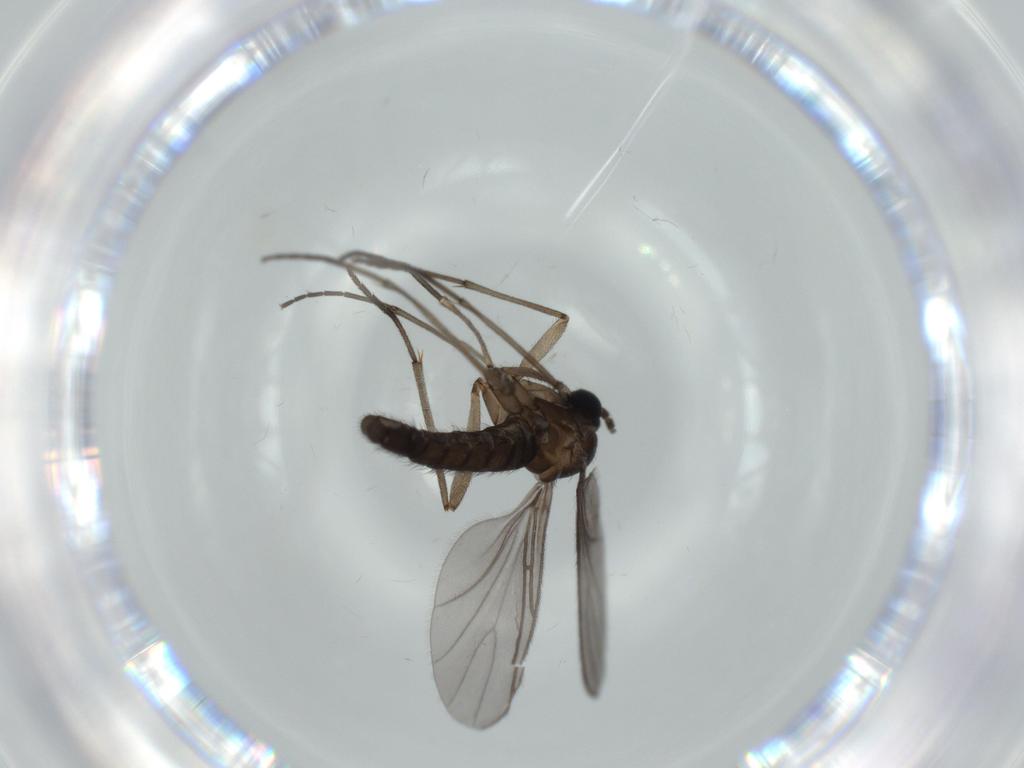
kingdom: Animalia
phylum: Arthropoda
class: Insecta
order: Diptera
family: Sciaridae
